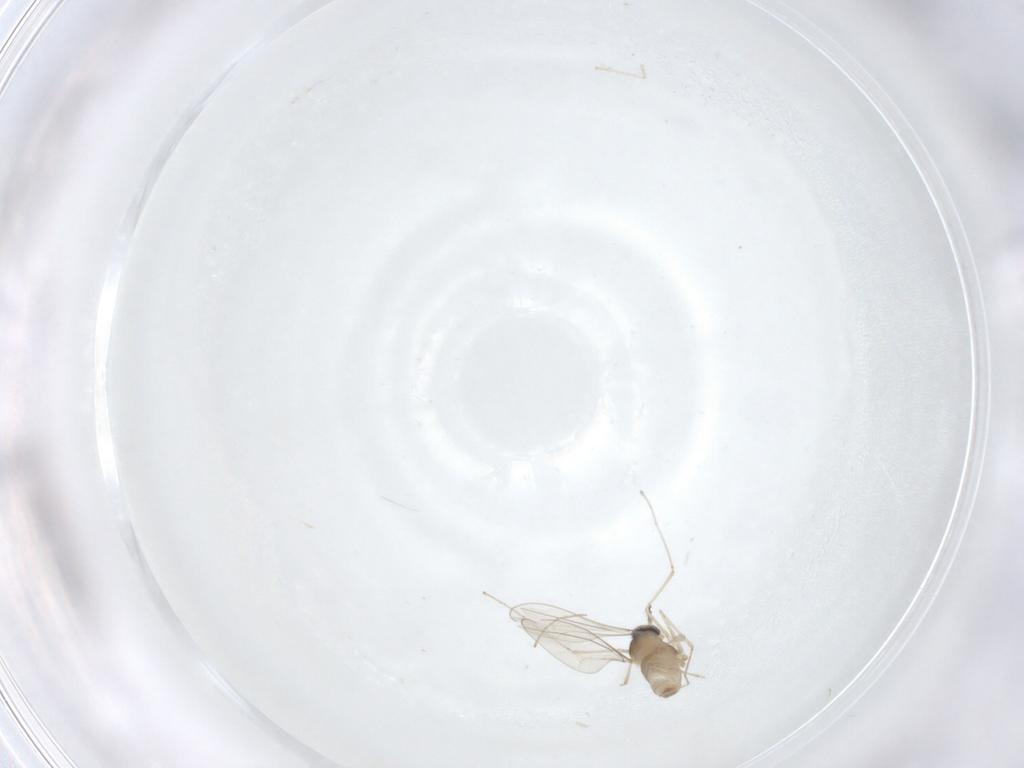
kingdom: Animalia
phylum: Arthropoda
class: Insecta
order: Diptera
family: Cecidomyiidae
